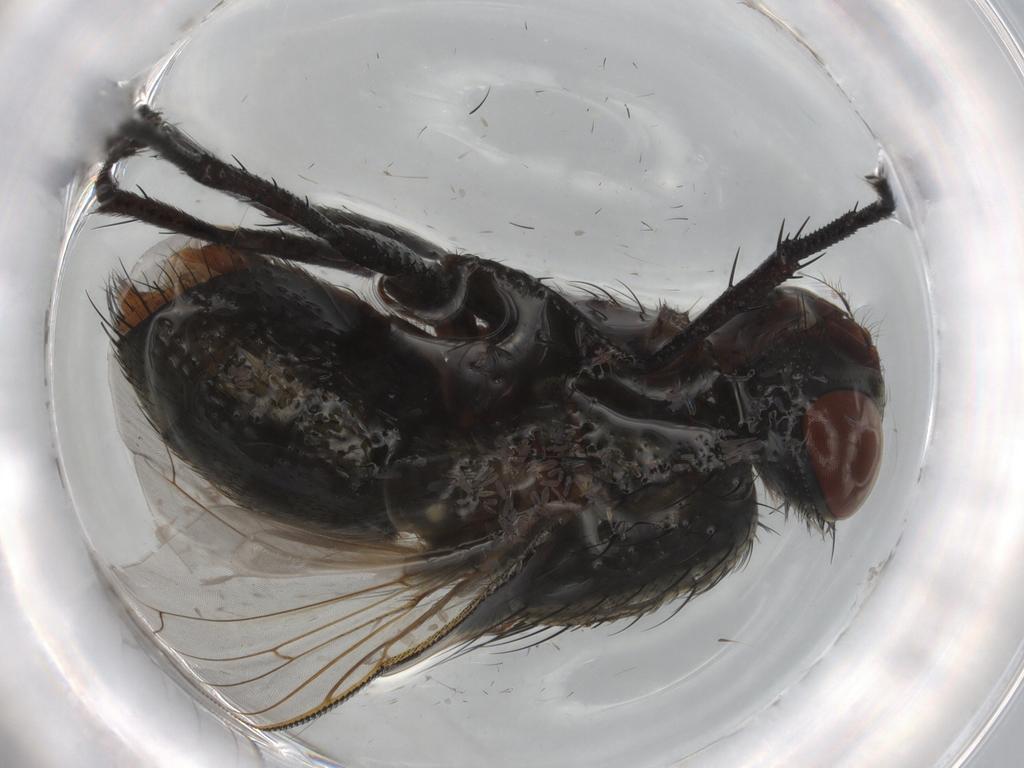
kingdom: Animalia
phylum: Arthropoda
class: Insecta
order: Diptera
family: Sarcophagidae
